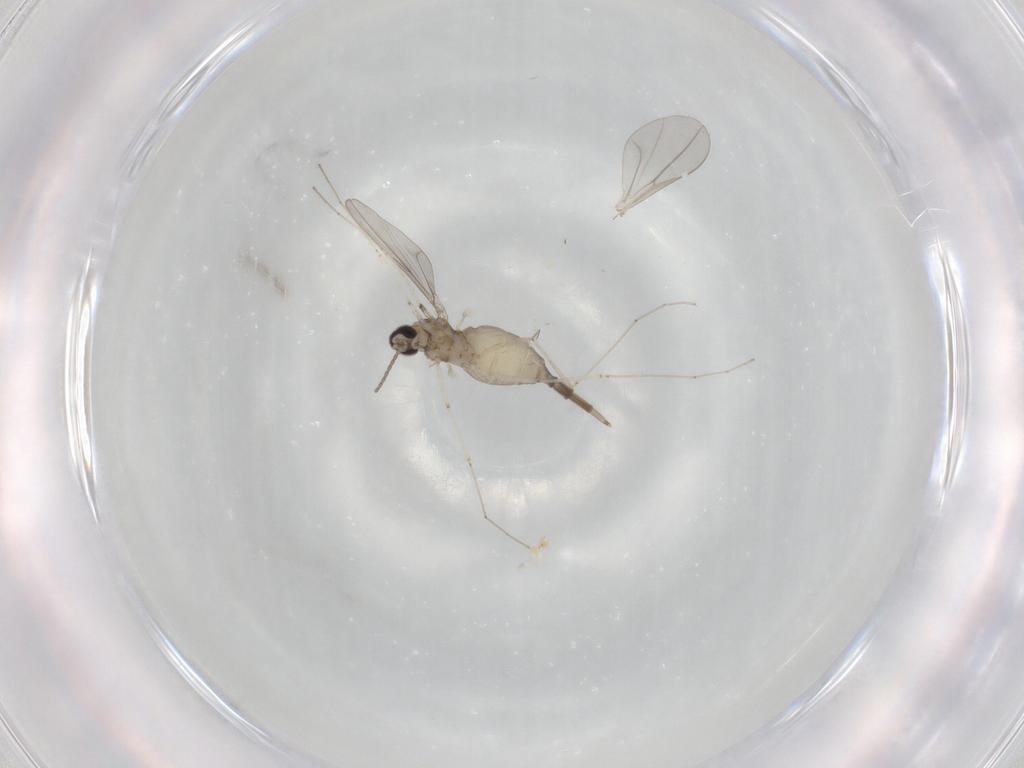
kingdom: Animalia
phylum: Arthropoda
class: Insecta
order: Diptera
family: Cecidomyiidae
